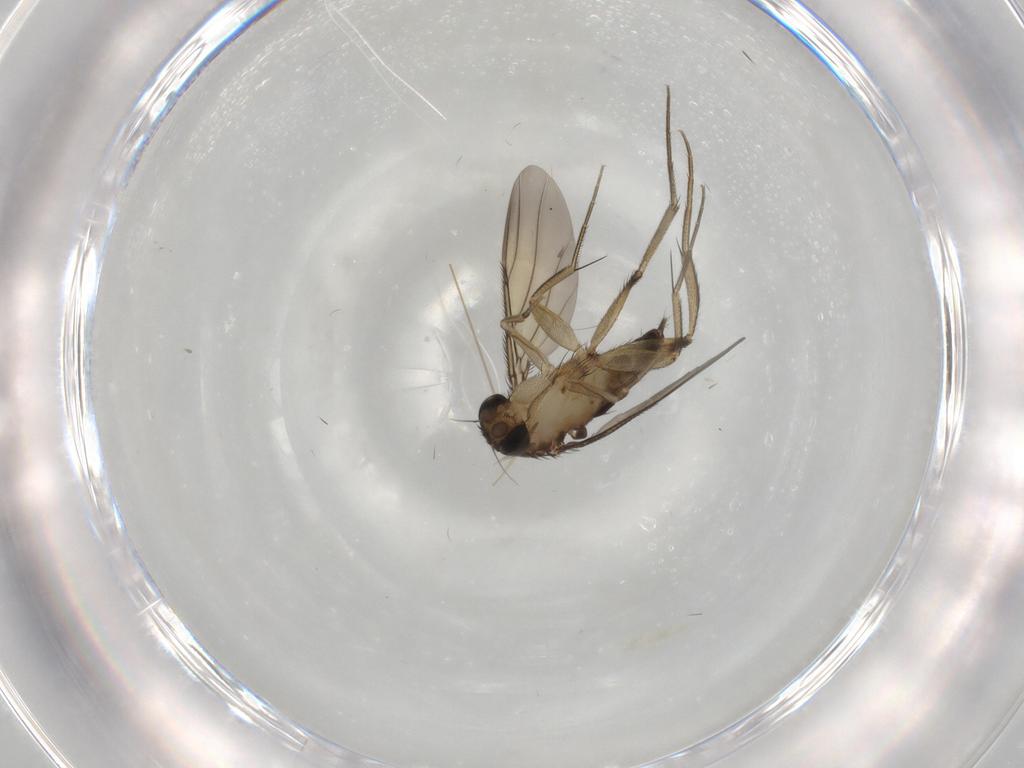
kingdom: Animalia
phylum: Arthropoda
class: Insecta
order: Diptera
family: Phoridae
